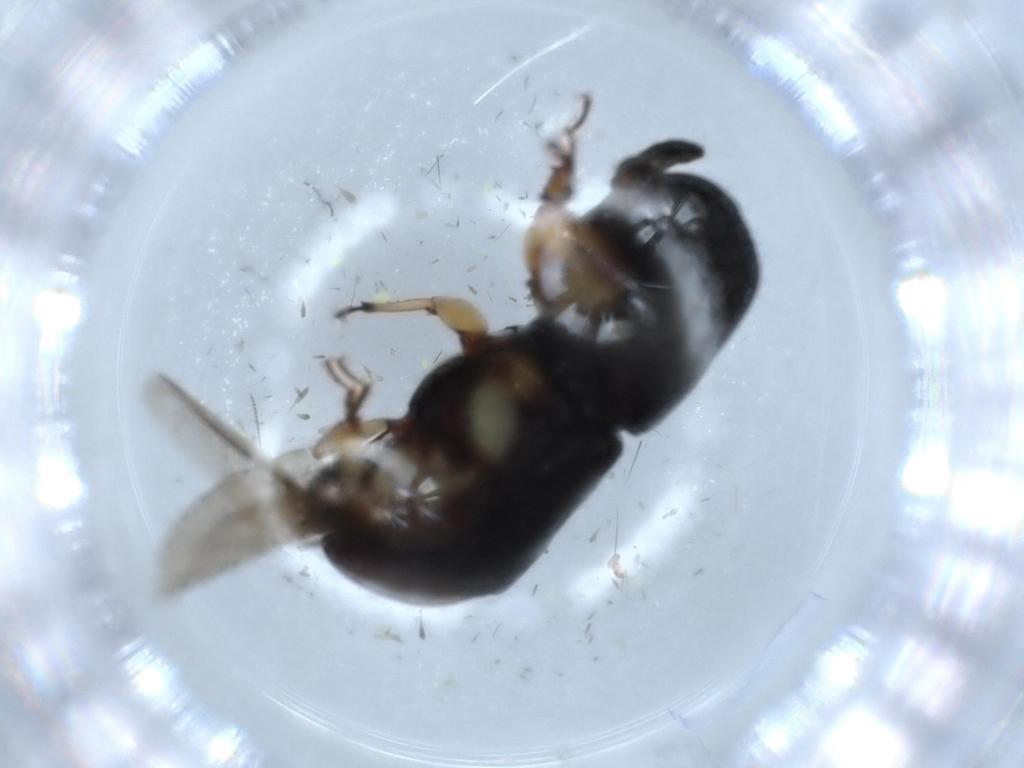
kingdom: Animalia
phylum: Arthropoda
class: Insecta
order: Coleoptera
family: Curculionidae
